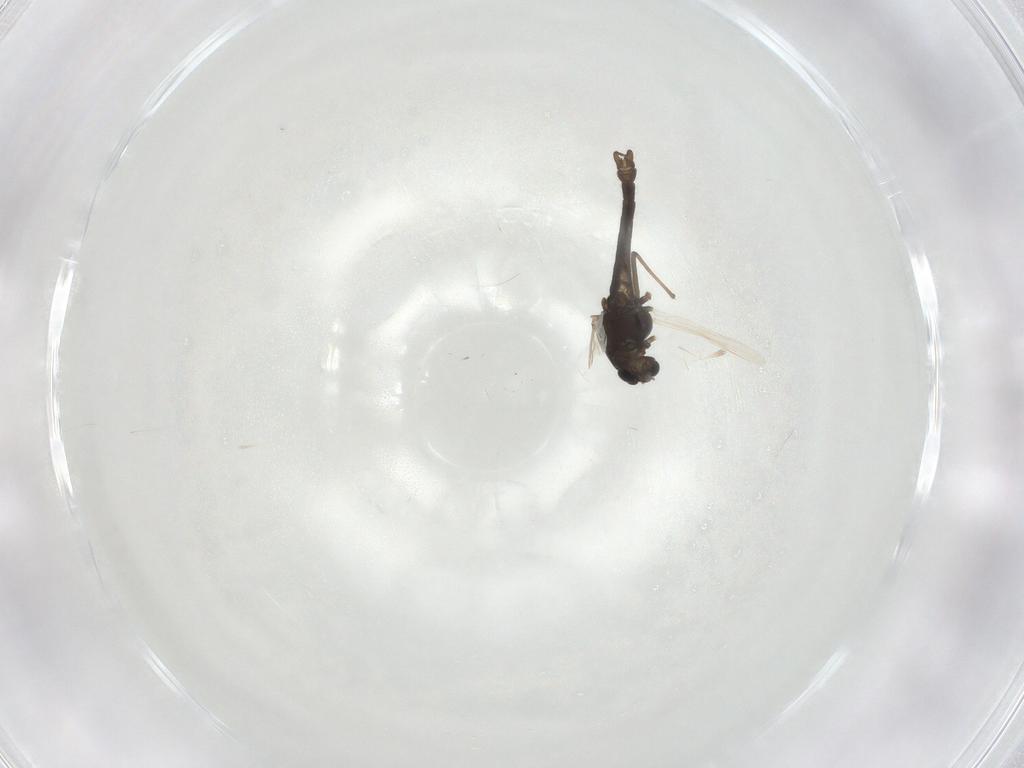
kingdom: Animalia
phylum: Arthropoda
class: Insecta
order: Diptera
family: Chironomidae
